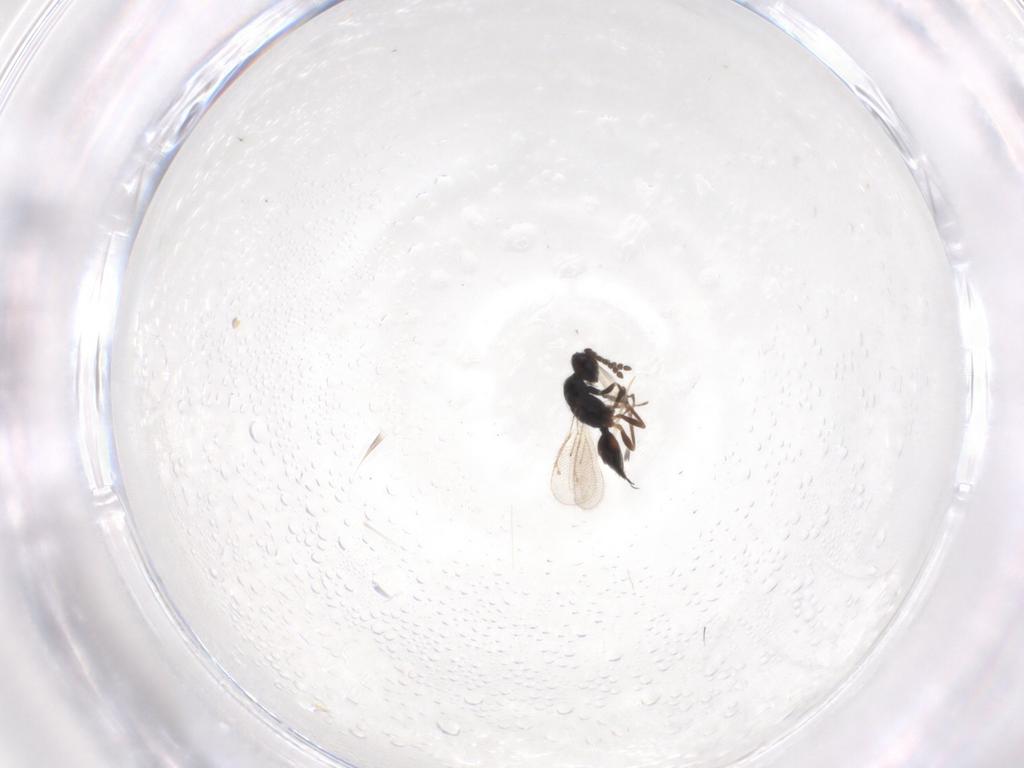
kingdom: Animalia
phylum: Arthropoda
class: Insecta
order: Hymenoptera
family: Eulophidae
